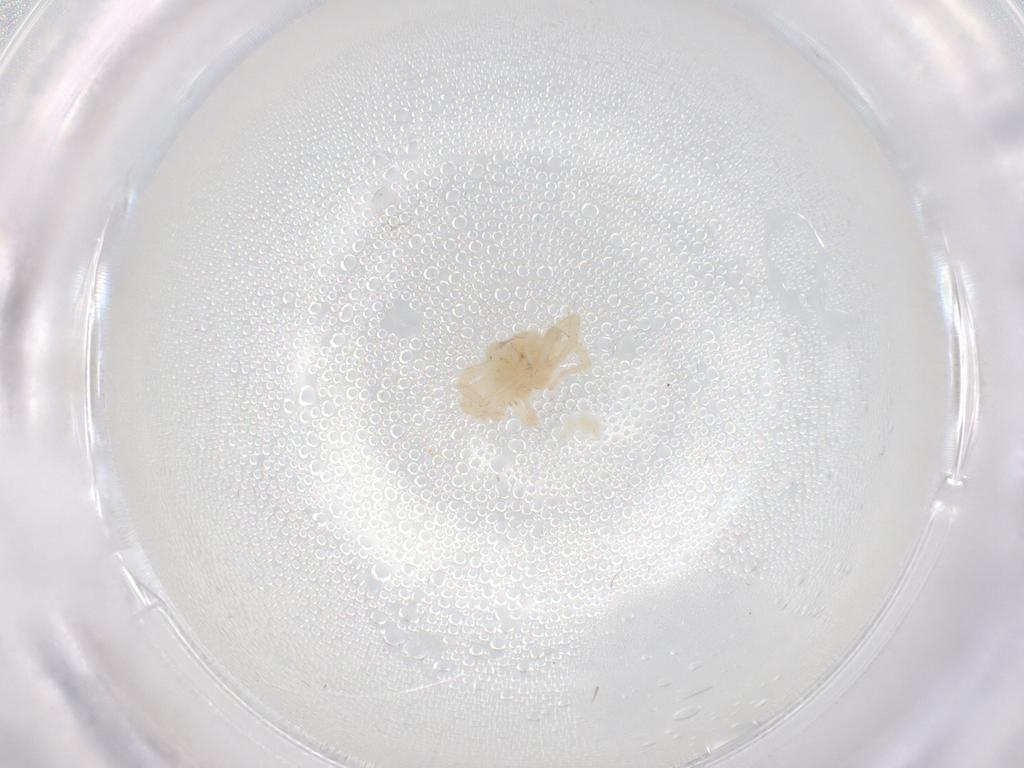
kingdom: Animalia
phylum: Arthropoda
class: Arachnida
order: Trombidiformes
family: Anystidae
